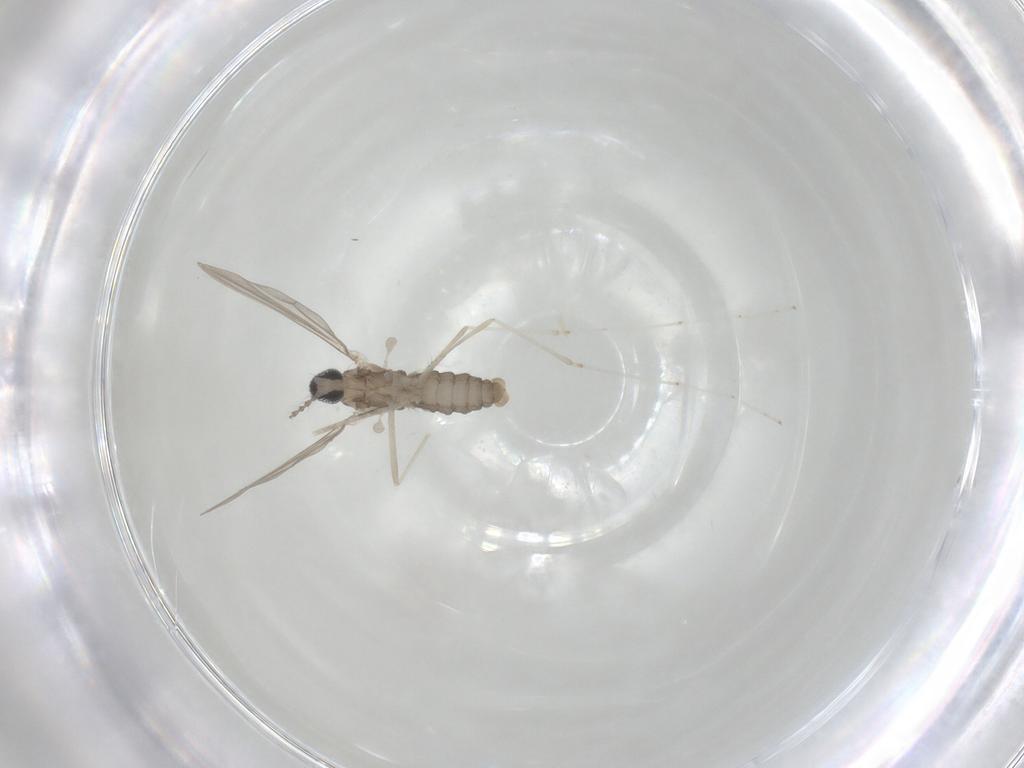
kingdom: Animalia
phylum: Arthropoda
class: Insecta
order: Diptera
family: Cecidomyiidae
